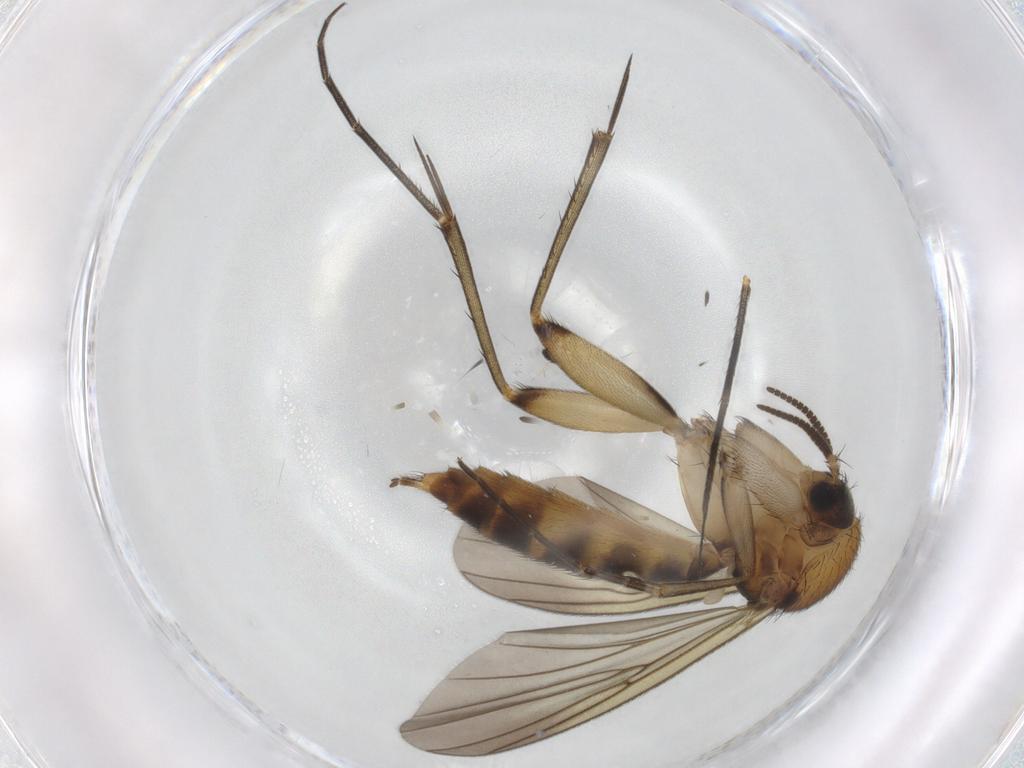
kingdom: Animalia
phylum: Arthropoda
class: Insecta
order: Diptera
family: Mycetophilidae
